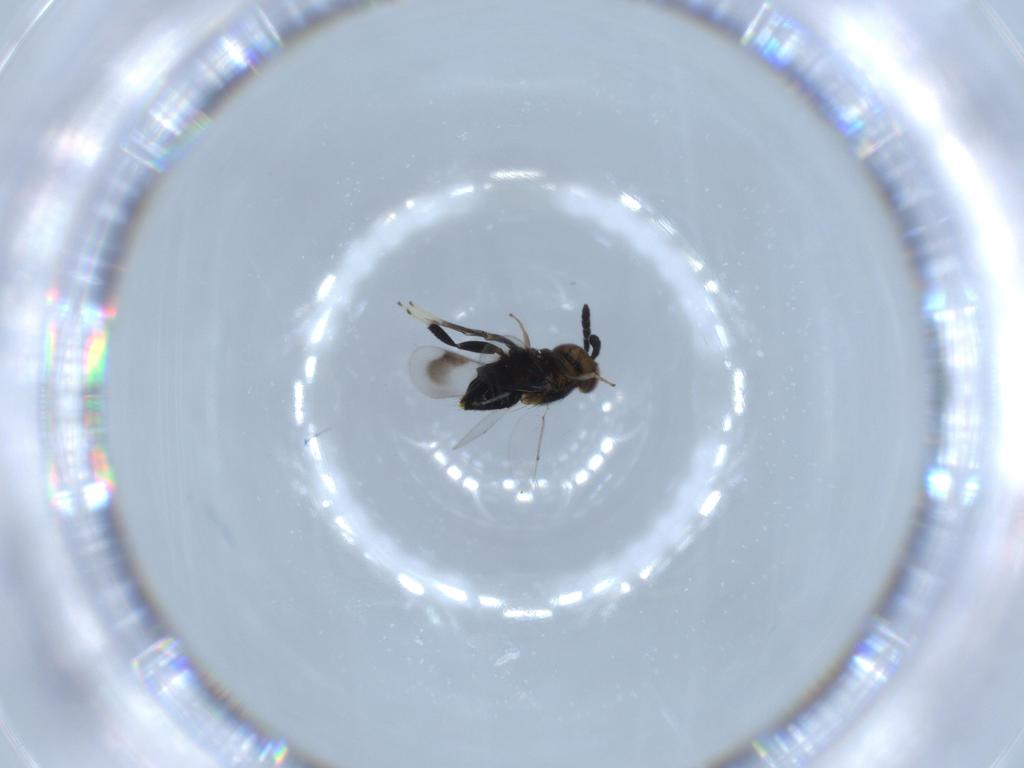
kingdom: Animalia
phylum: Arthropoda
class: Insecta
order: Hymenoptera
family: Aphelinidae
